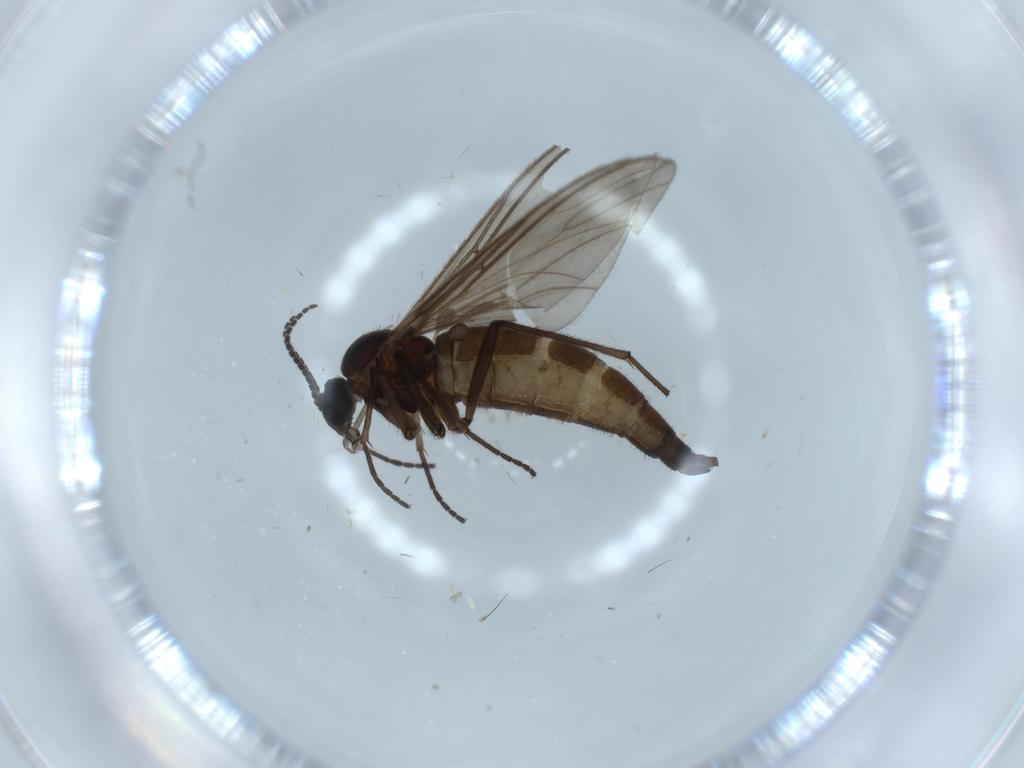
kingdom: Animalia
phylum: Arthropoda
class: Insecta
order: Diptera
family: Sciaridae
